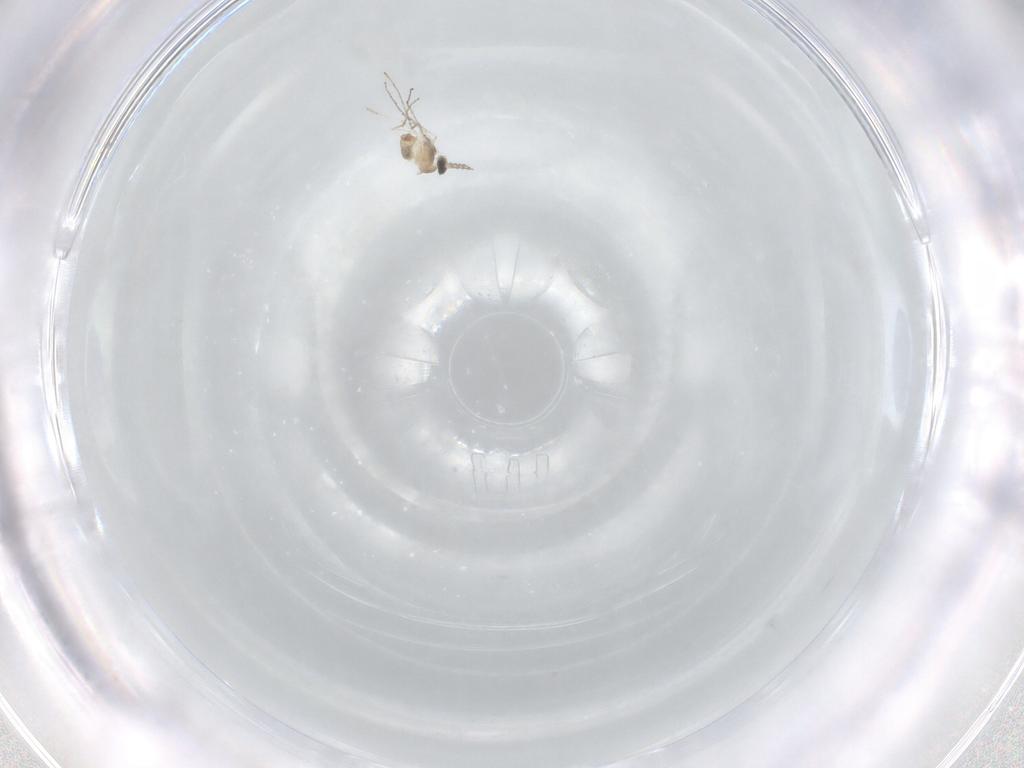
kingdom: Animalia
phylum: Arthropoda
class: Insecta
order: Diptera
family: Cecidomyiidae
